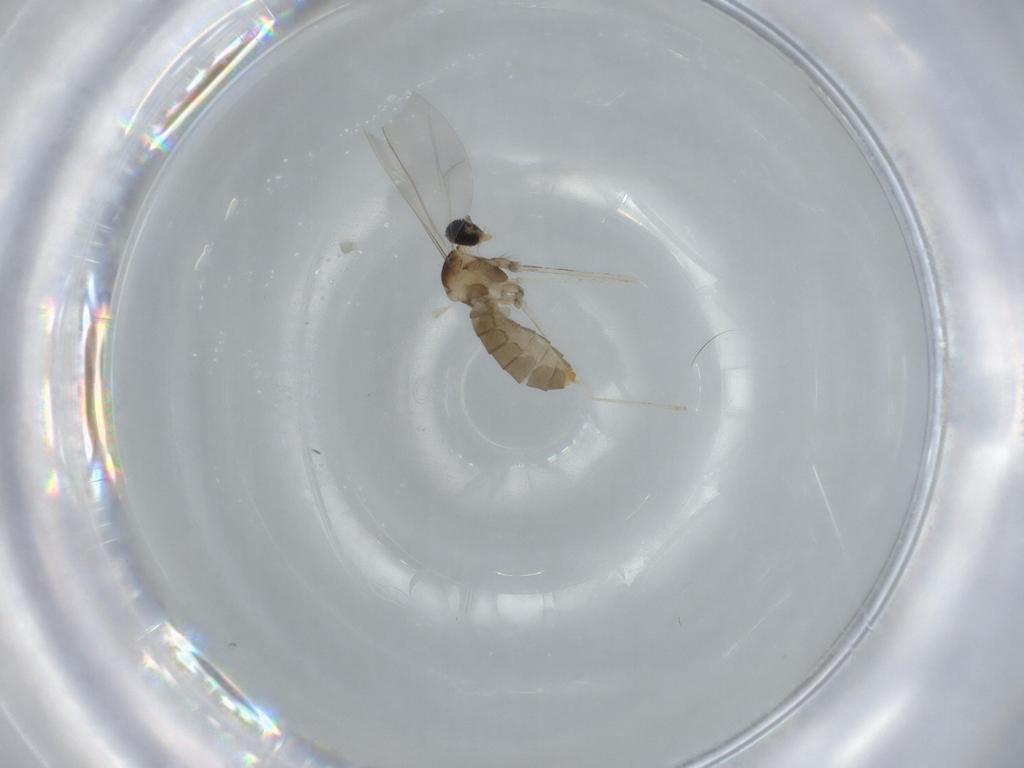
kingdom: Animalia
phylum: Arthropoda
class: Insecta
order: Diptera
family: Cecidomyiidae
